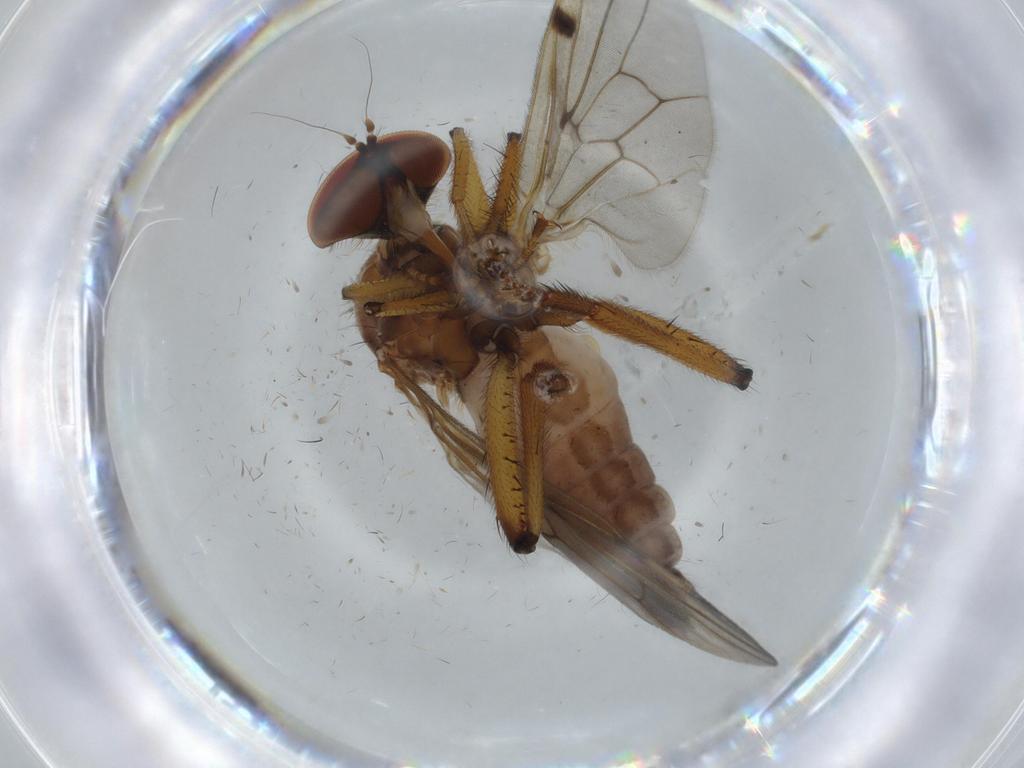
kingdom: Animalia
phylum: Arthropoda
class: Insecta
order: Diptera
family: Hybotidae
